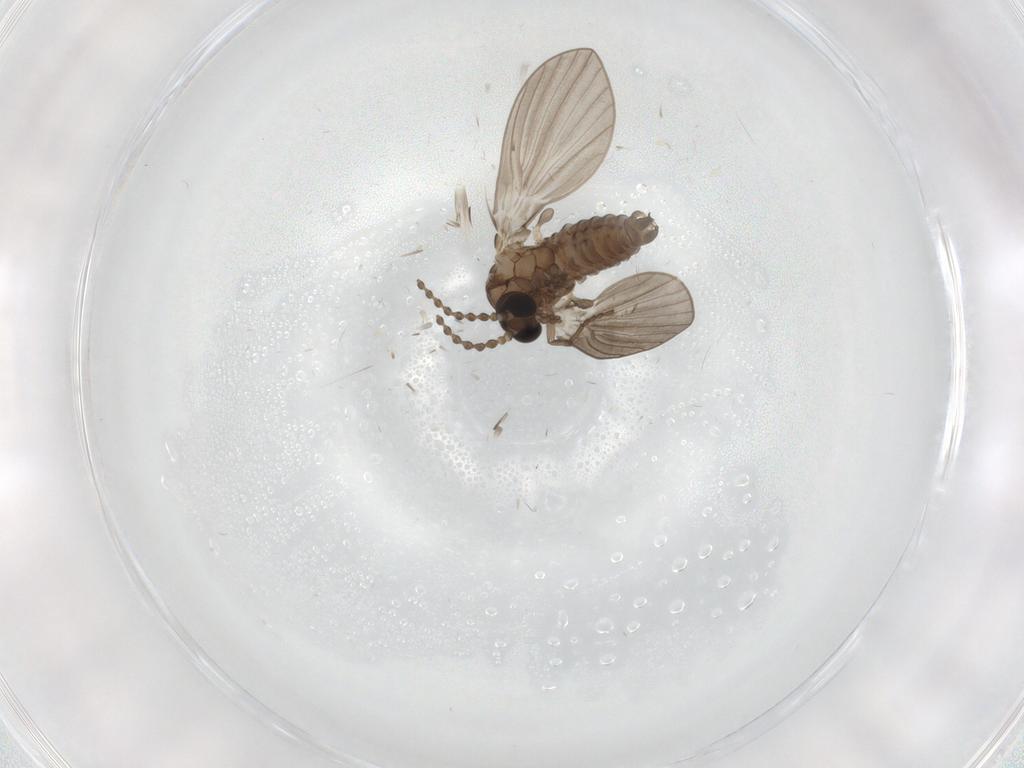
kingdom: Animalia
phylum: Arthropoda
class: Insecta
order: Diptera
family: Psychodidae
